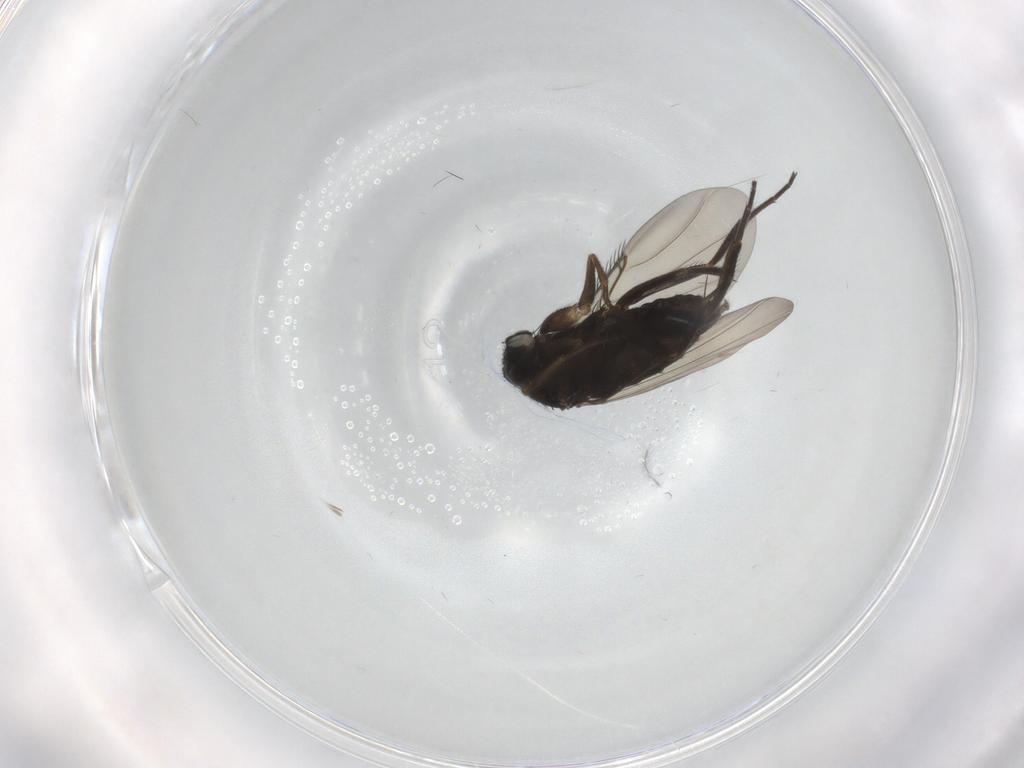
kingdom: Animalia
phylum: Arthropoda
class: Insecta
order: Diptera
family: Phoridae
